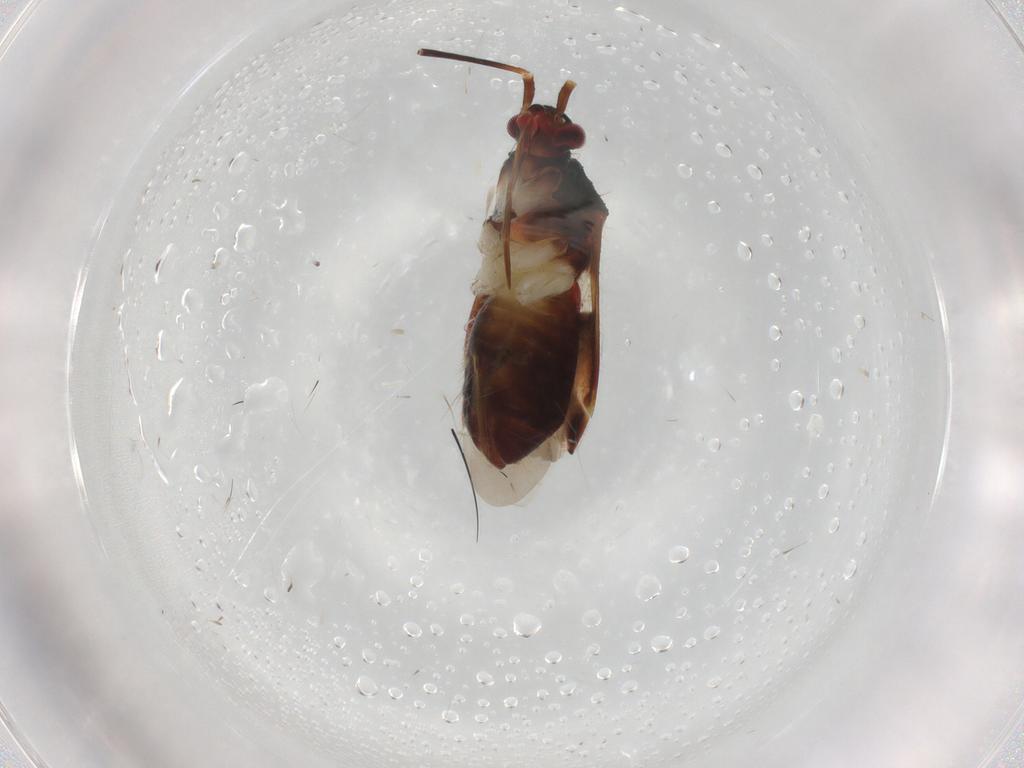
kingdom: Animalia
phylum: Arthropoda
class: Insecta
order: Hemiptera
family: Miridae
